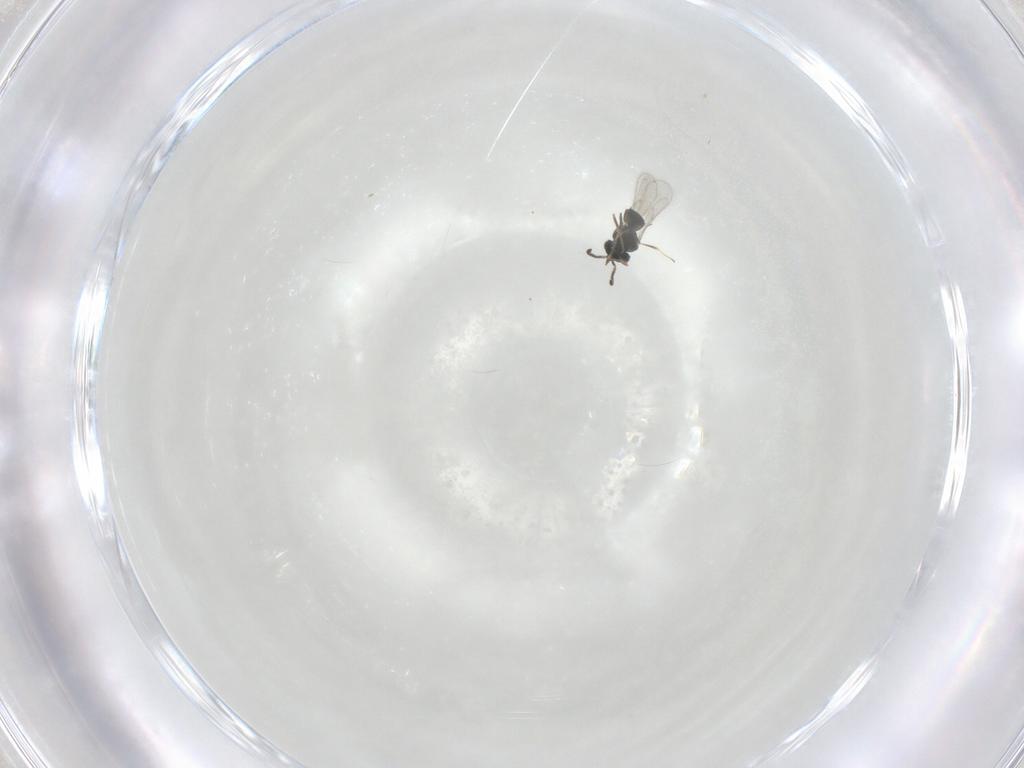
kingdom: Animalia
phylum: Arthropoda
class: Insecta
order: Hymenoptera
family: Scelionidae
